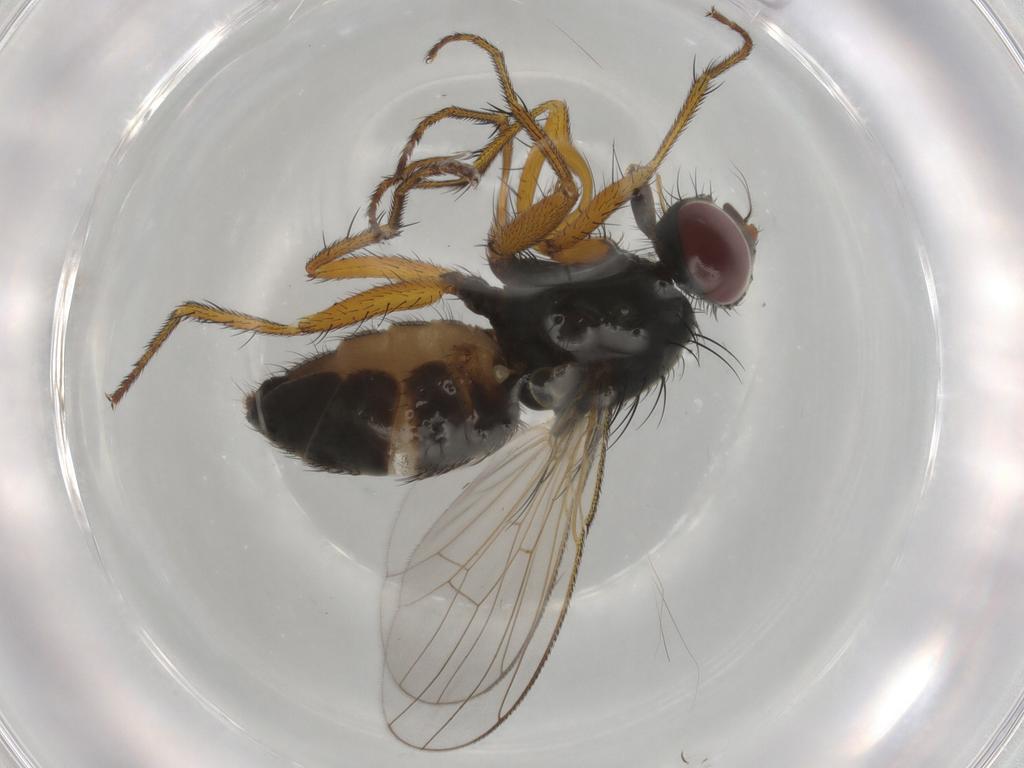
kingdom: Animalia
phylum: Arthropoda
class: Insecta
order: Diptera
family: Muscidae
